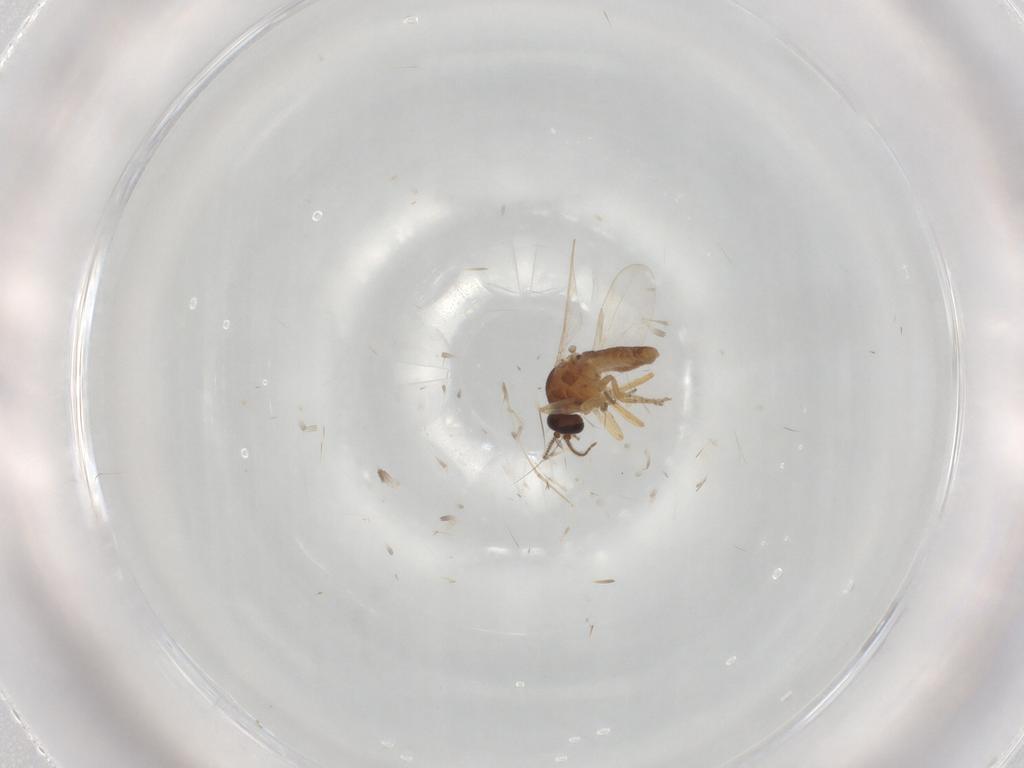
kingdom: Animalia
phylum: Arthropoda
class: Insecta
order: Diptera
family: Ceratopogonidae
